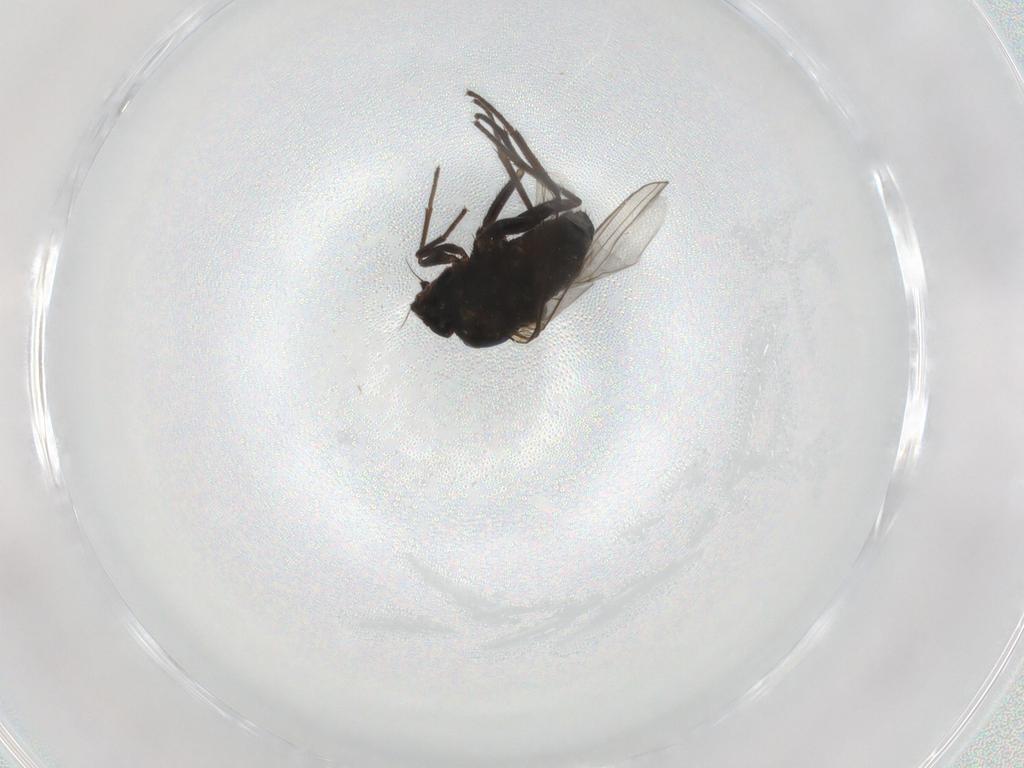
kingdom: Animalia
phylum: Arthropoda
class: Insecta
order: Diptera
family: Dolichopodidae
